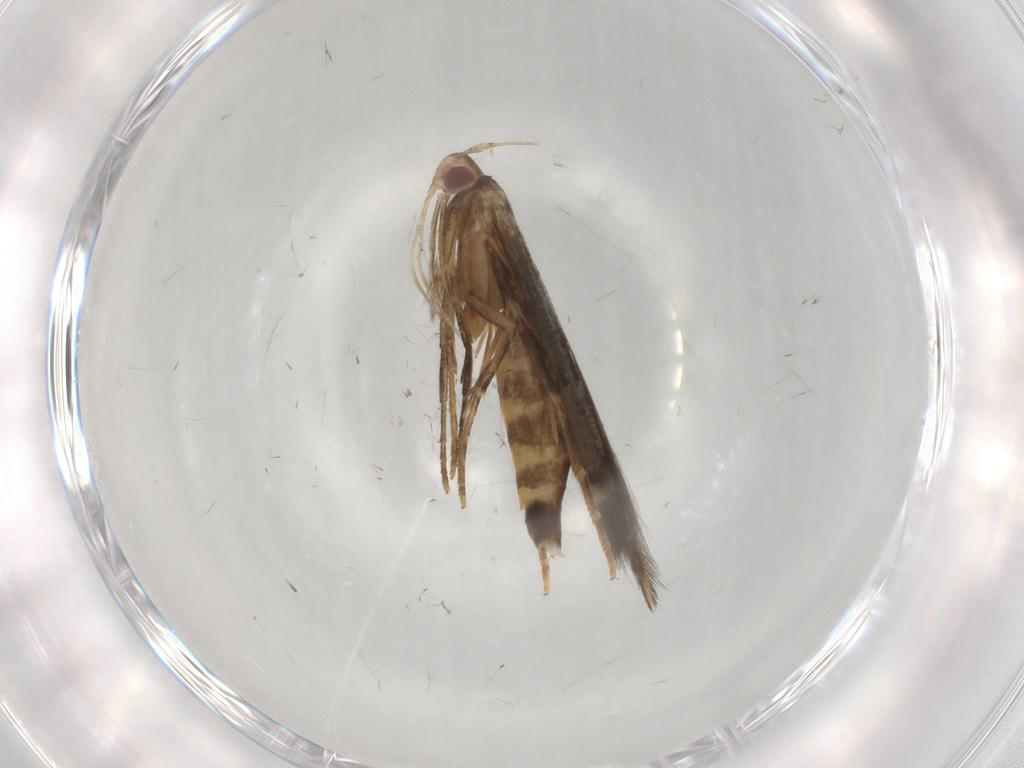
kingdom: Animalia
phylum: Arthropoda
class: Insecta
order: Lepidoptera
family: Cosmopterigidae
